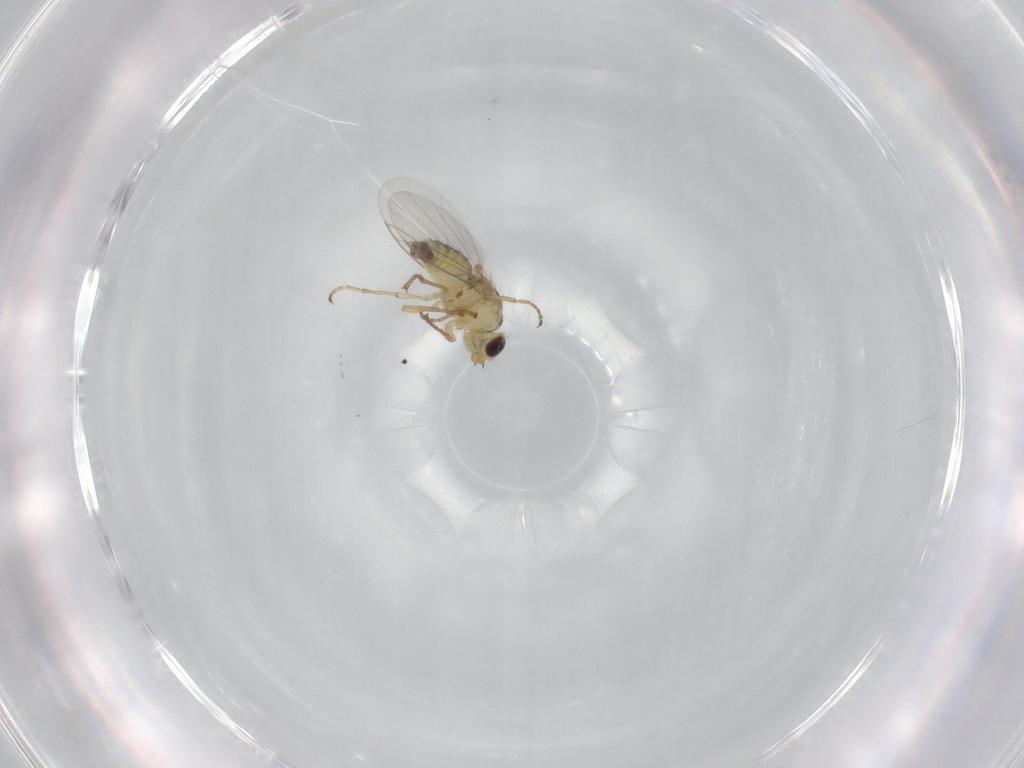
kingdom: Animalia
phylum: Arthropoda
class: Insecta
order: Diptera
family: Agromyzidae
